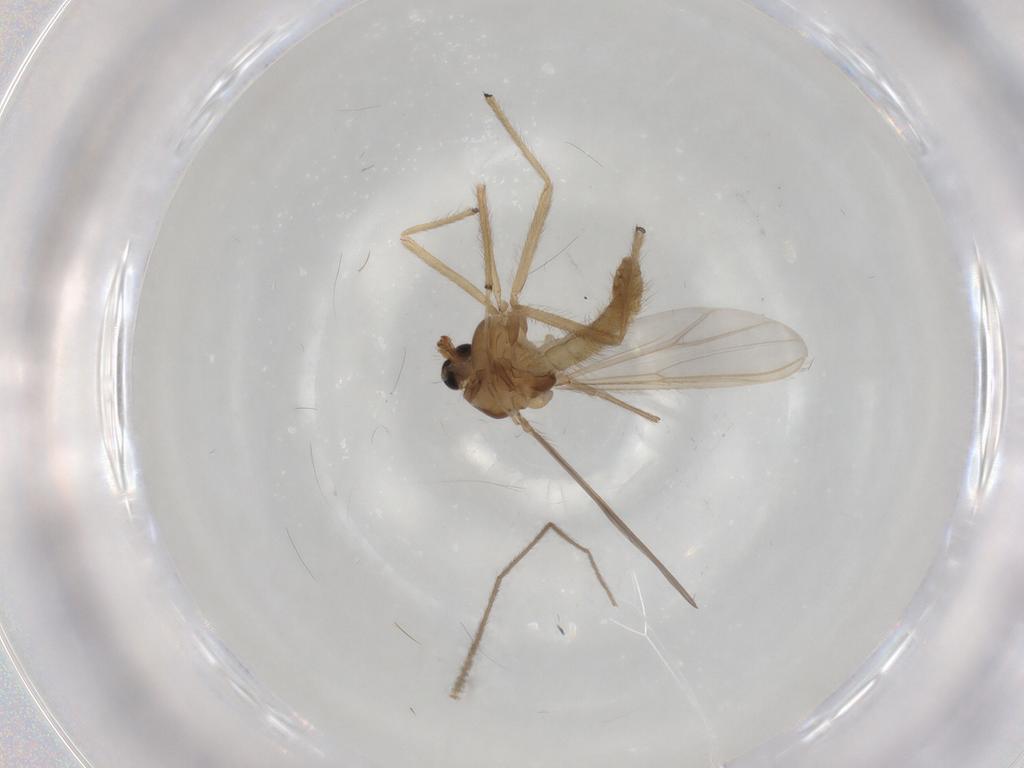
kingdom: Animalia
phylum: Arthropoda
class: Insecta
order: Diptera
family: Chironomidae
